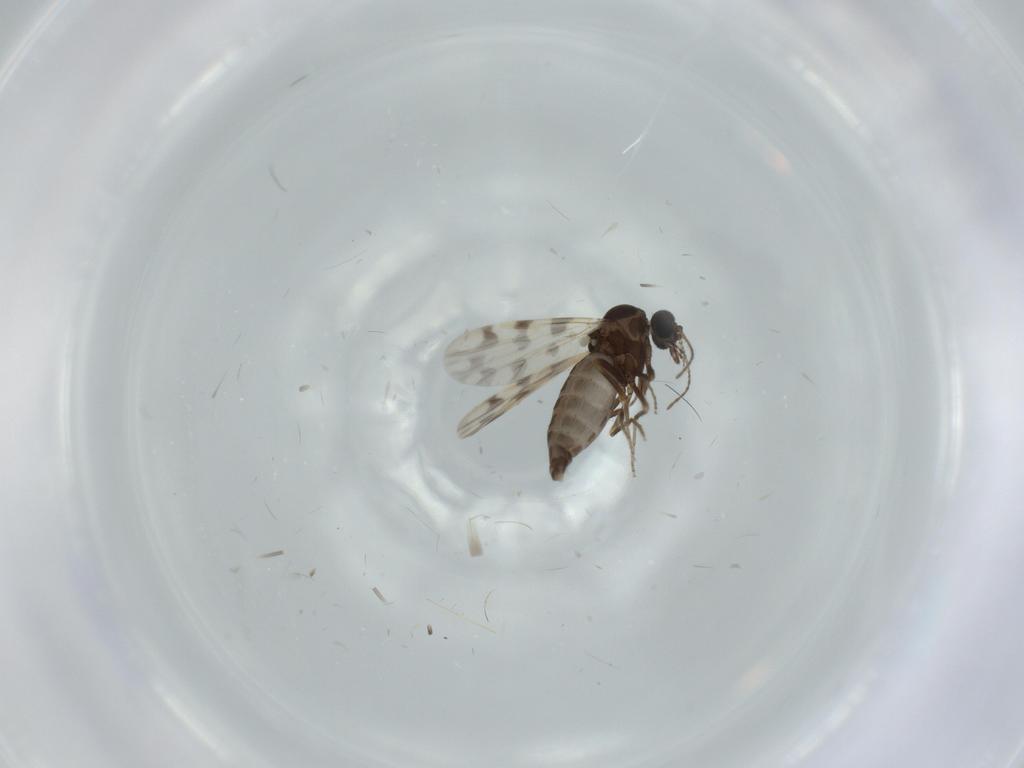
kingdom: Animalia
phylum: Arthropoda
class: Insecta
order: Diptera
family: Ceratopogonidae
